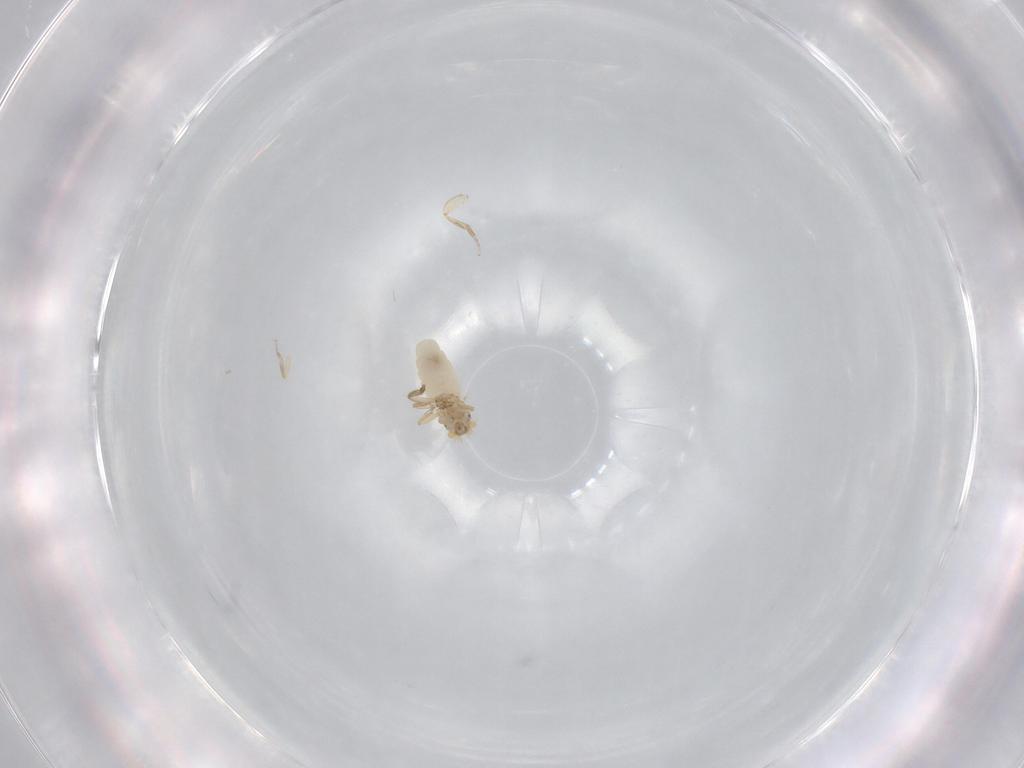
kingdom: Animalia
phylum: Arthropoda
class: Insecta
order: Diptera
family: Phoridae
